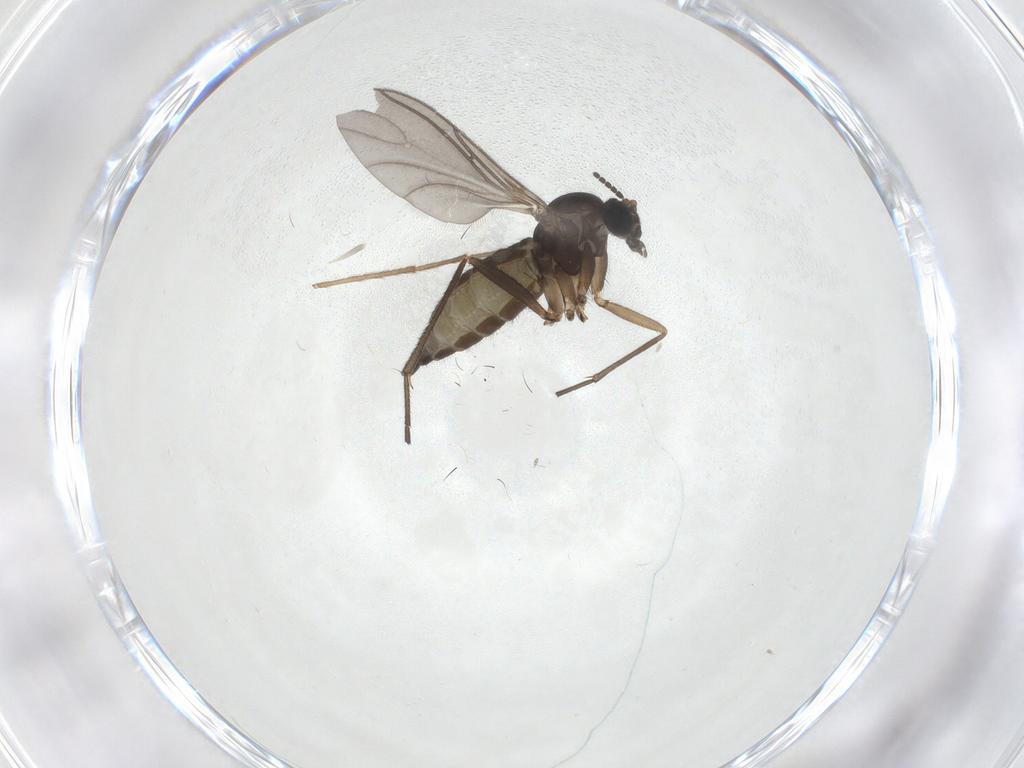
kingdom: Animalia
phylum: Arthropoda
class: Insecta
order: Diptera
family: Sciaridae
